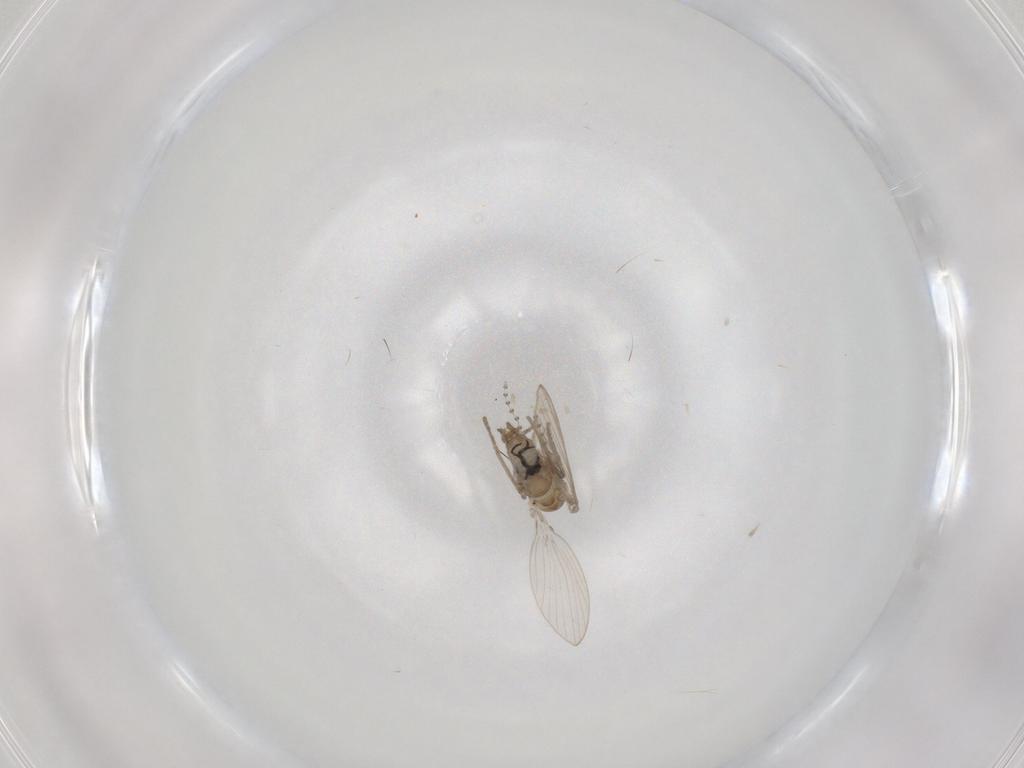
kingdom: Animalia
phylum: Arthropoda
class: Insecta
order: Diptera
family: Psychodidae
